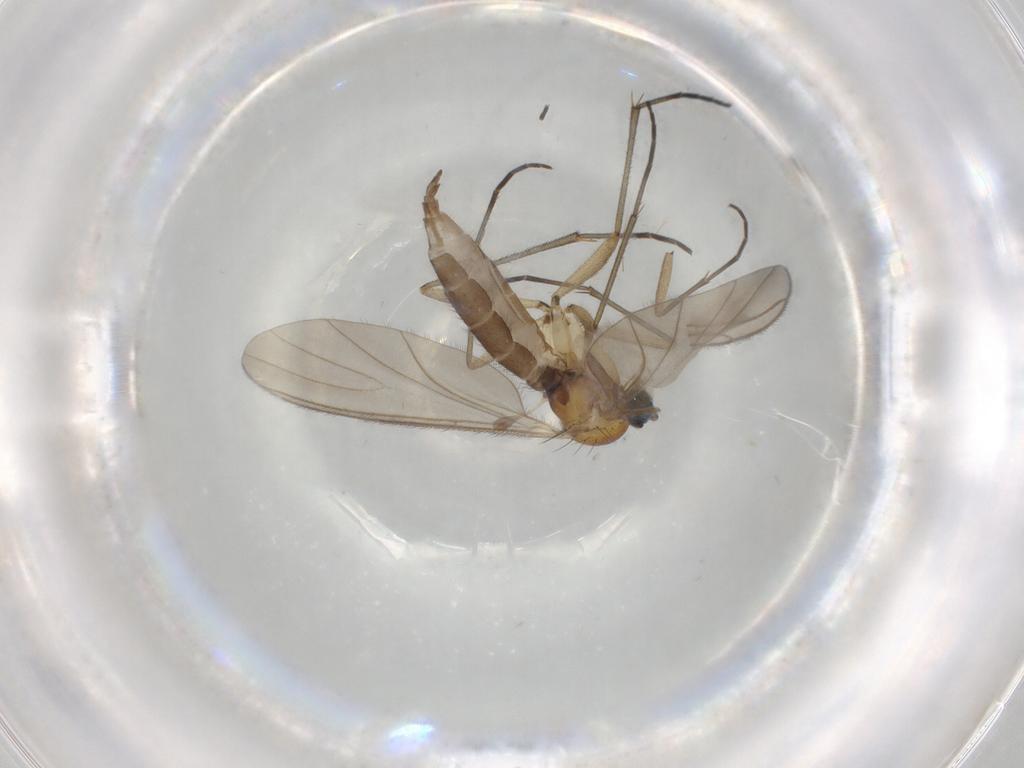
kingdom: Animalia
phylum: Arthropoda
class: Insecta
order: Diptera
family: Sciaridae
